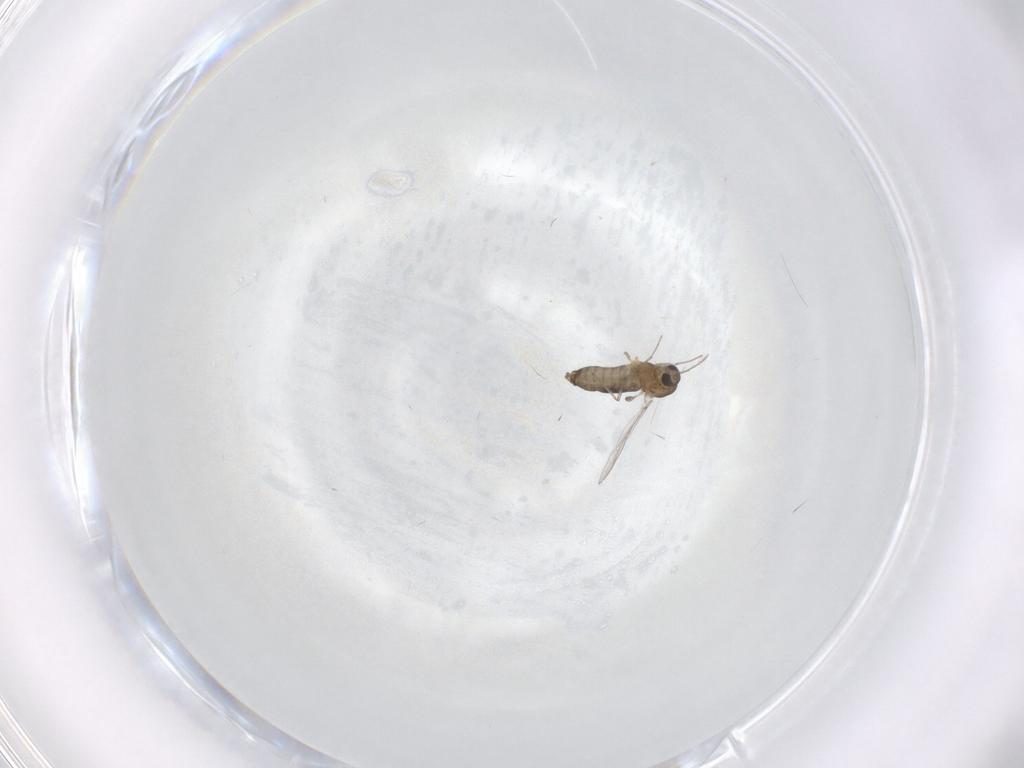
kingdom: Animalia
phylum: Arthropoda
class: Insecta
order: Diptera
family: Chironomidae
